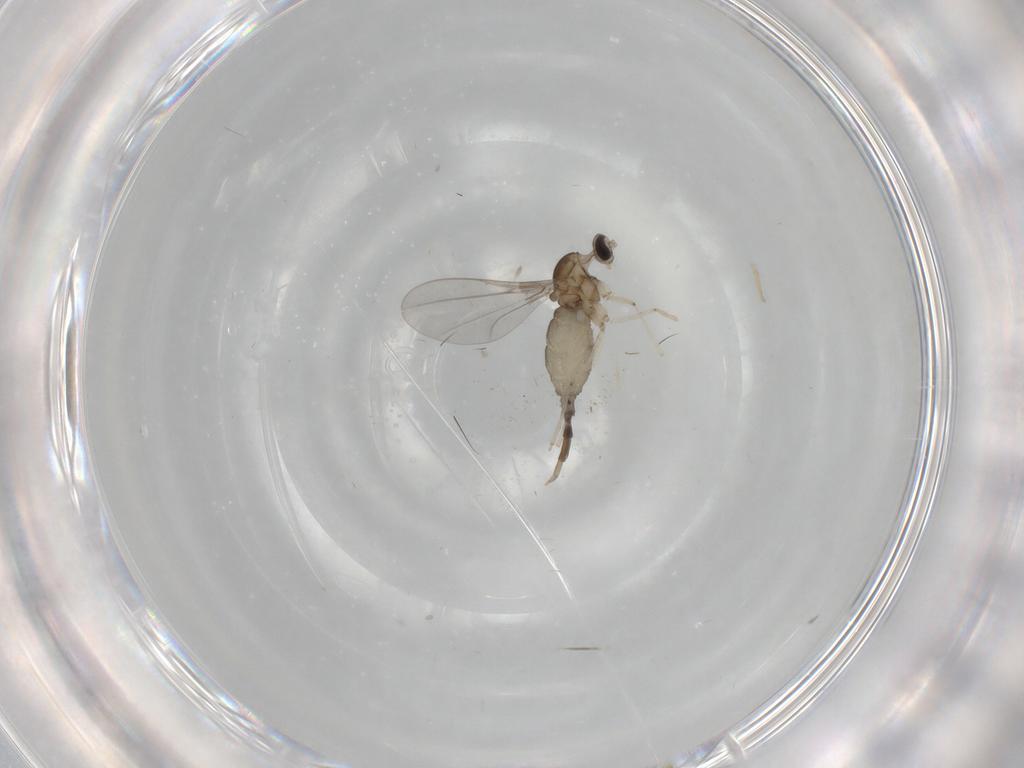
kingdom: Animalia
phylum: Arthropoda
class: Insecta
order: Diptera
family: Cecidomyiidae
